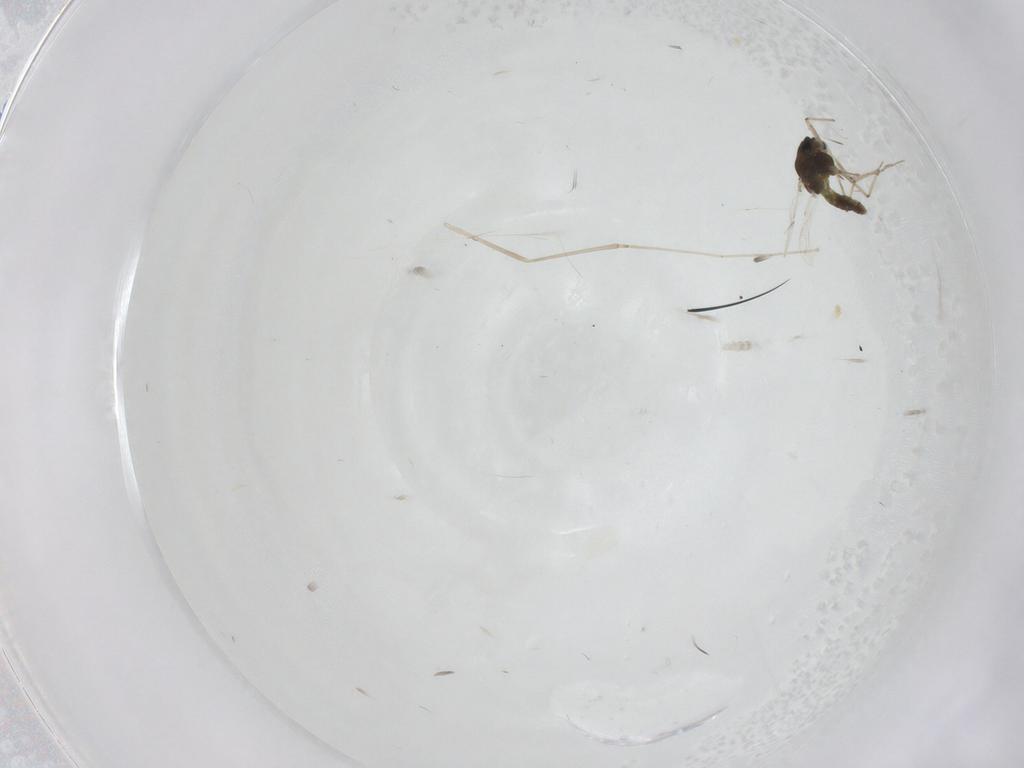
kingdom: Animalia
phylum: Arthropoda
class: Insecta
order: Diptera
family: Chironomidae
